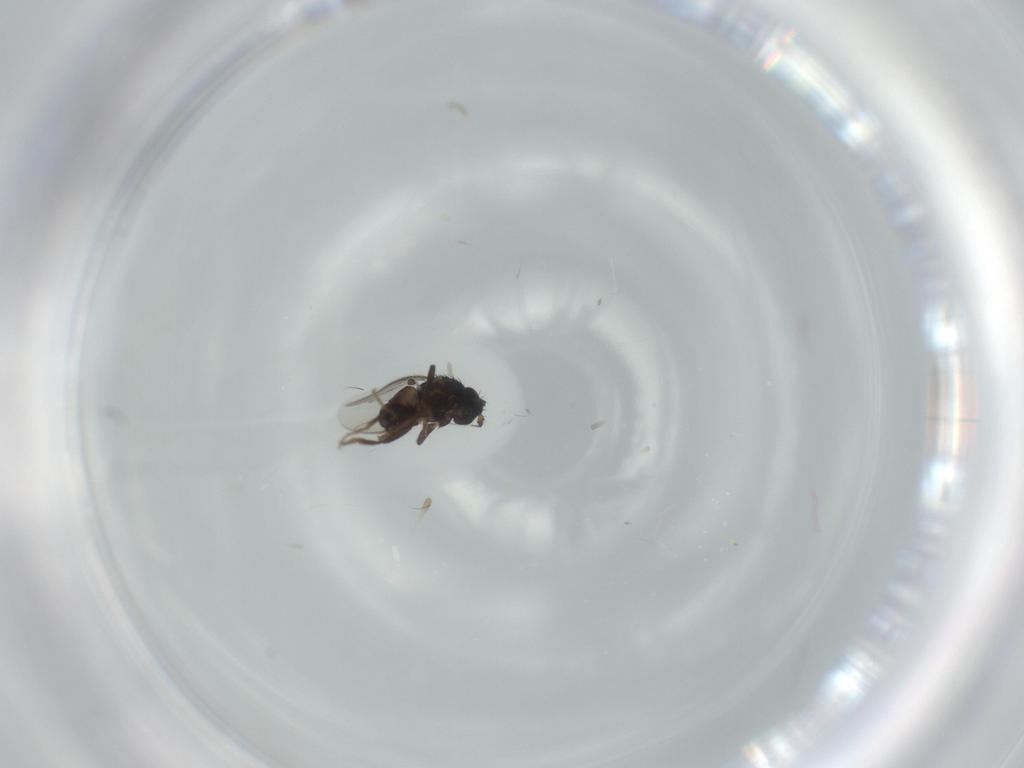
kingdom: Animalia
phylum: Arthropoda
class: Insecta
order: Diptera
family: Sphaeroceridae
